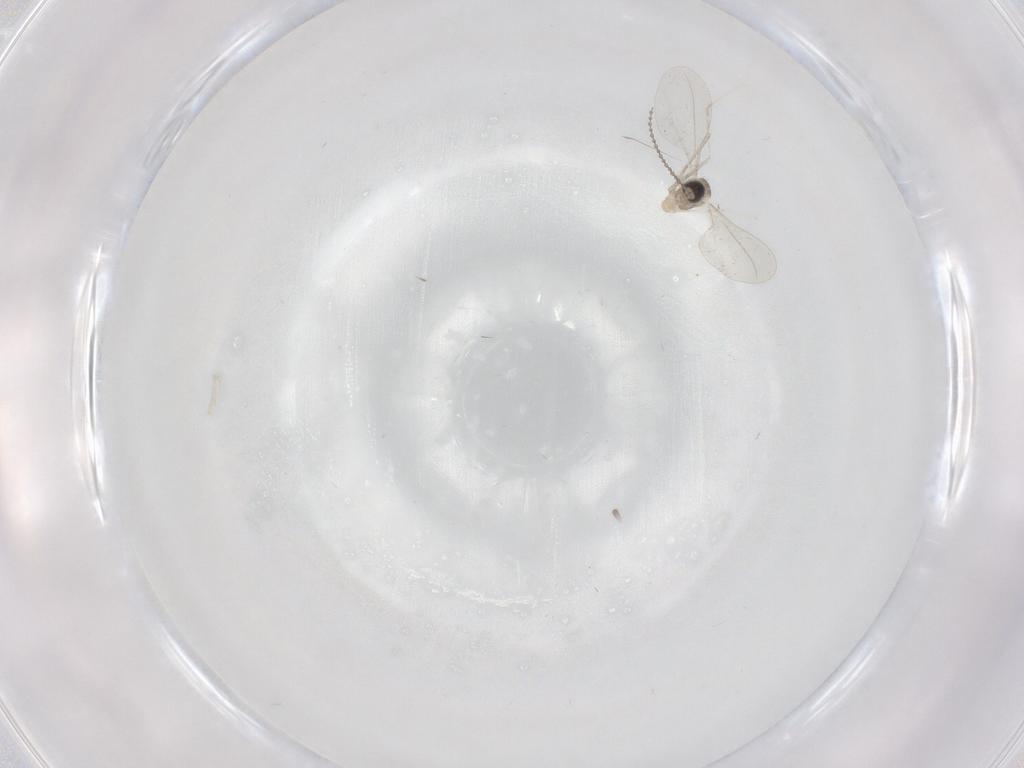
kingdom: Animalia
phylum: Arthropoda
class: Insecta
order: Diptera
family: Cecidomyiidae
